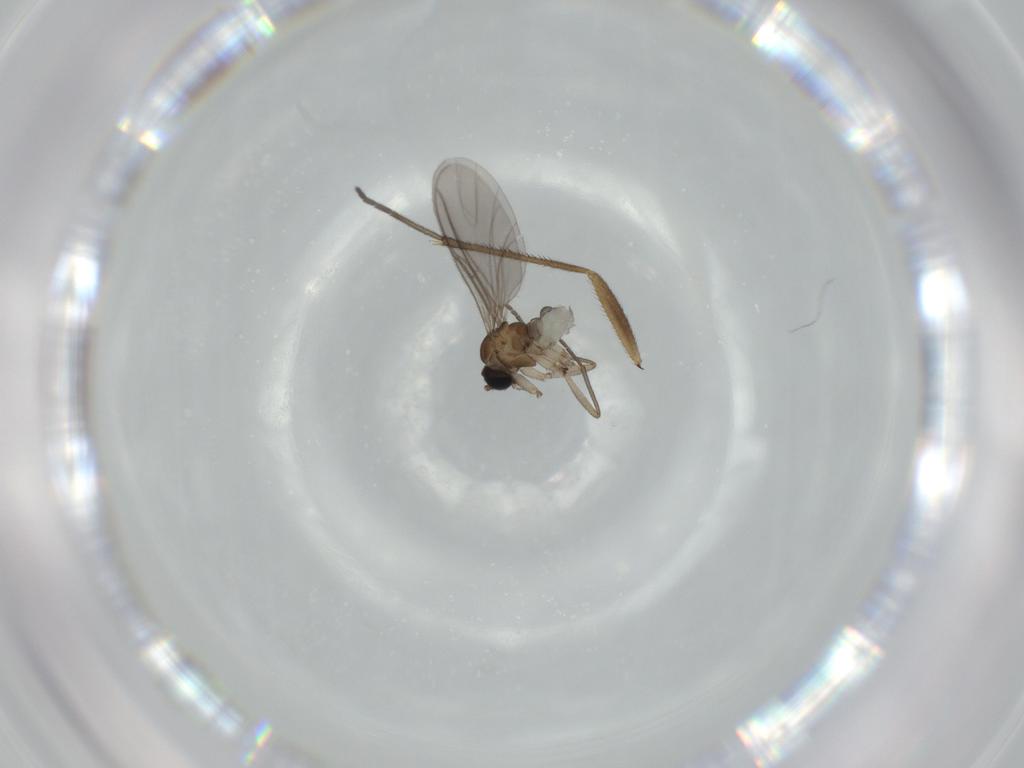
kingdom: Animalia
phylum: Arthropoda
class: Insecta
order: Diptera
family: Sciaridae
